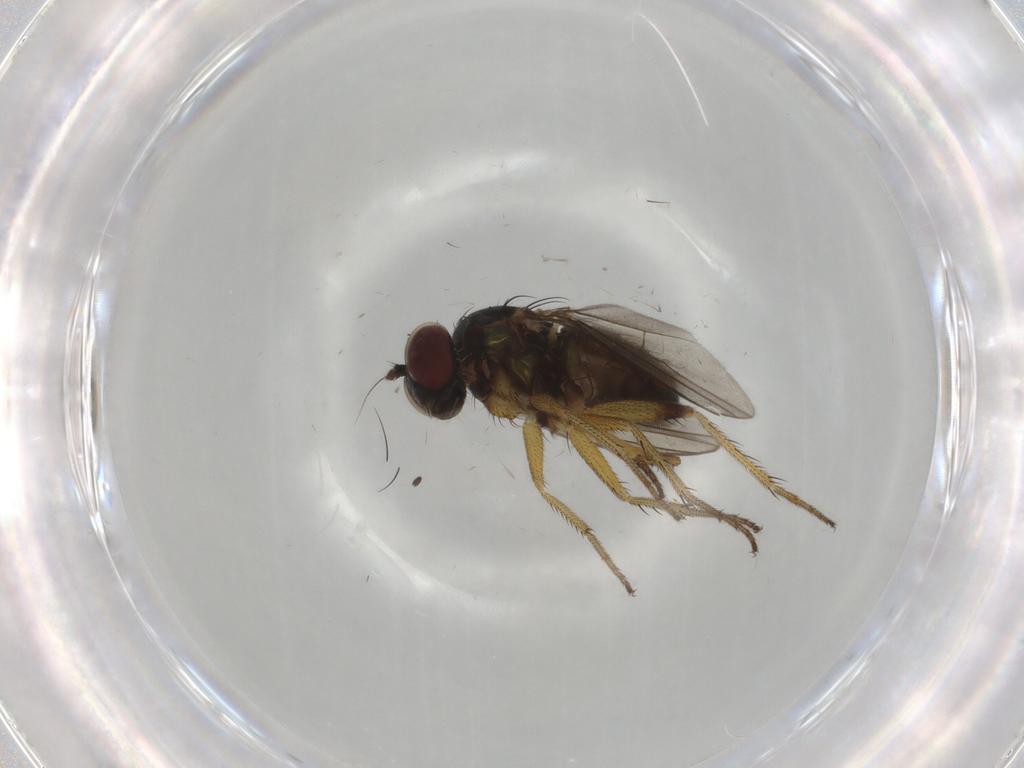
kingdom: Animalia
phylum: Arthropoda
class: Insecta
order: Diptera
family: Dolichopodidae
